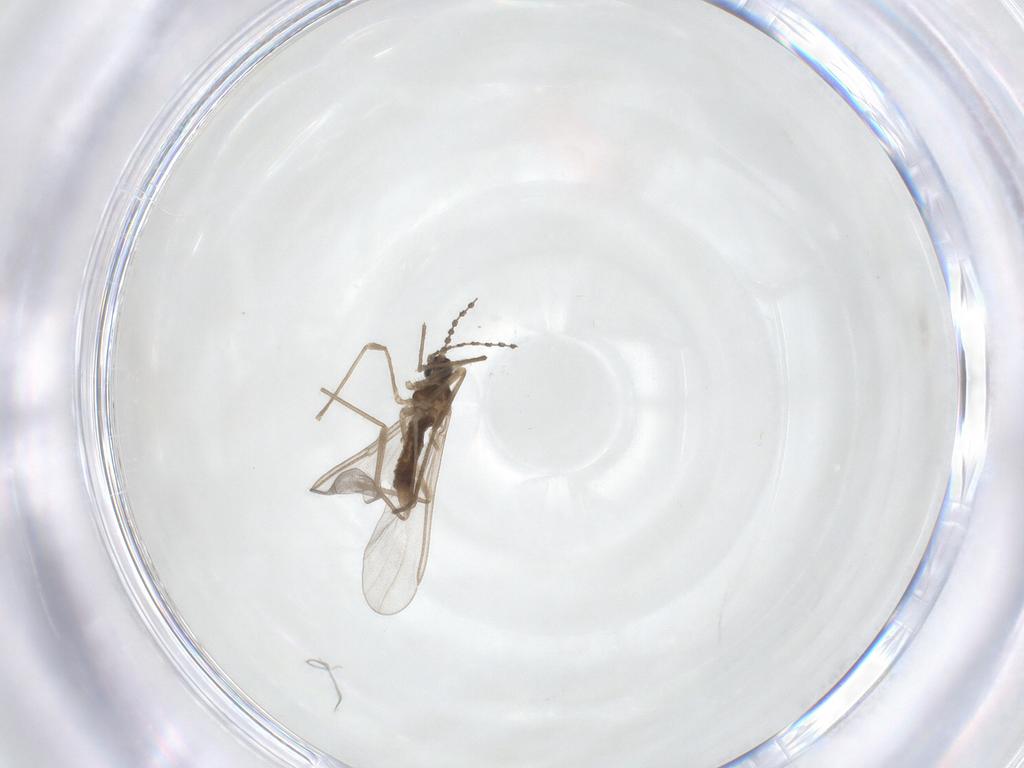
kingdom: Animalia
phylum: Arthropoda
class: Insecta
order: Diptera
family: Cecidomyiidae
